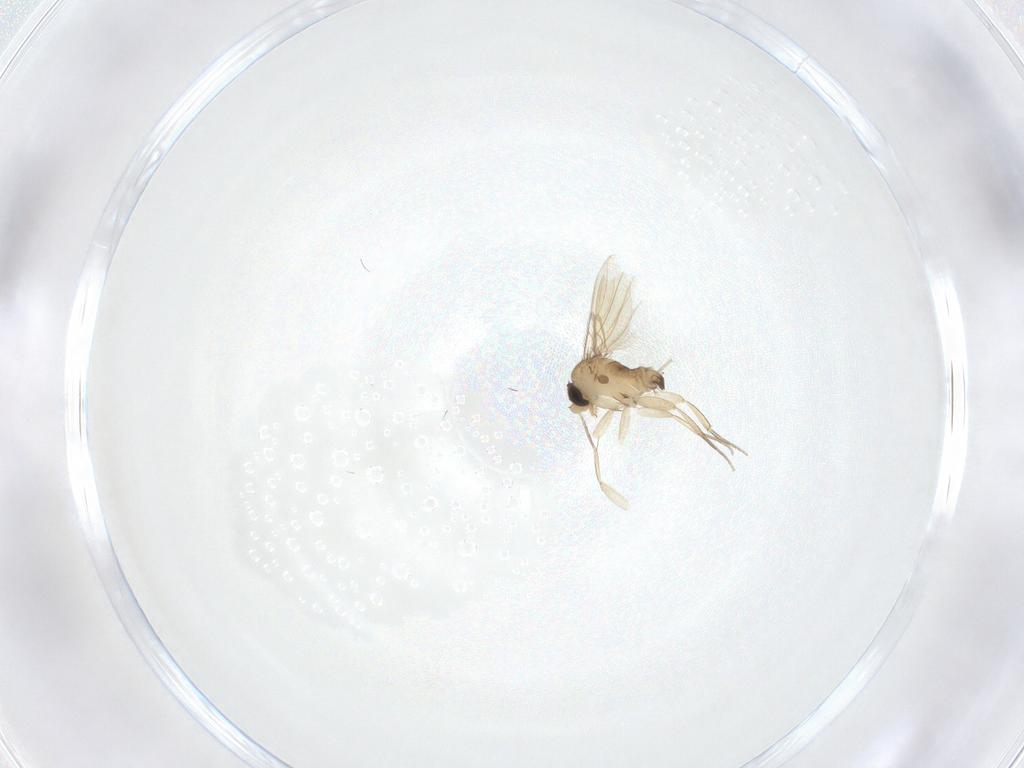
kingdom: Animalia
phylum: Arthropoda
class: Insecta
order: Diptera
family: Phoridae
